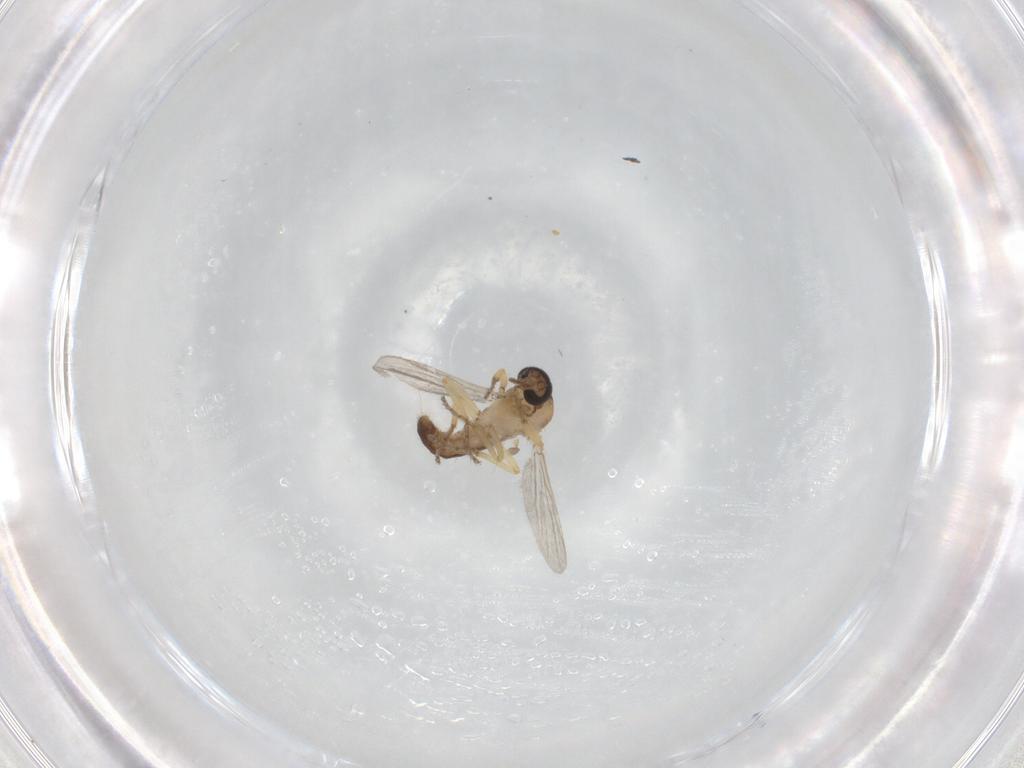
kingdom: Animalia
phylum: Arthropoda
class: Insecta
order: Diptera
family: Ceratopogonidae
